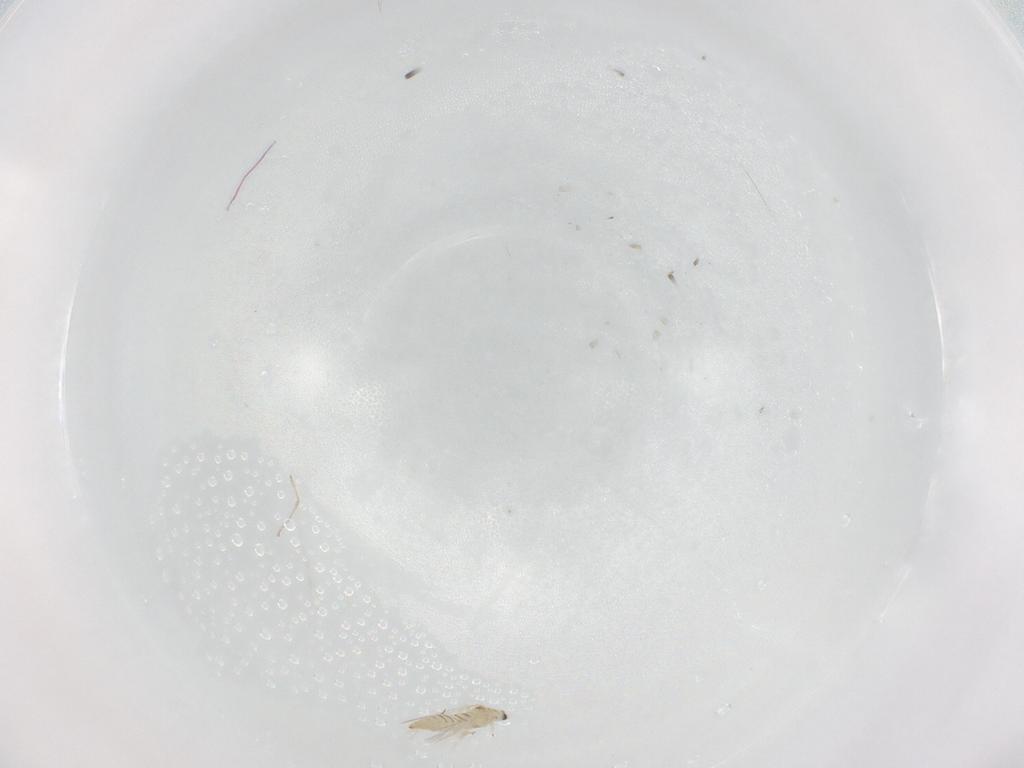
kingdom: Animalia
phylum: Arthropoda
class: Insecta
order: Thysanoptera
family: Thripidae
